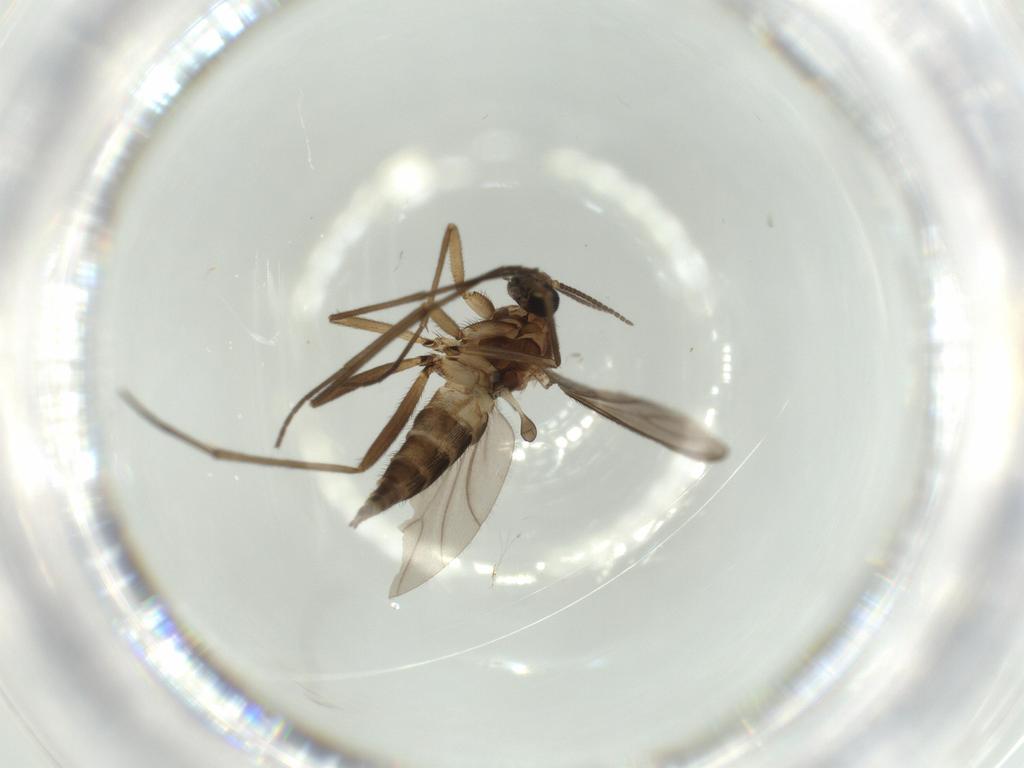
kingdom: Animalia
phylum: Arthropoda
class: Insecta
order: Diptera
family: Sciaridae
